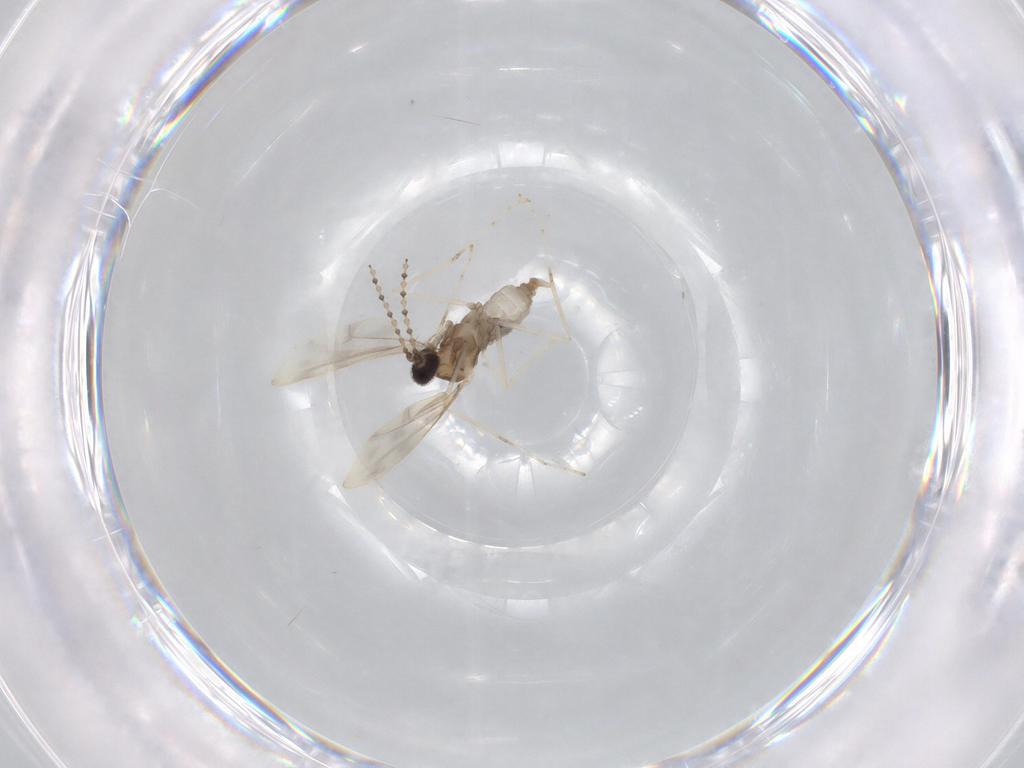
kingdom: Animalia
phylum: Arthropoda
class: Insecta
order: Diptera
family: Cecidomyiidae
